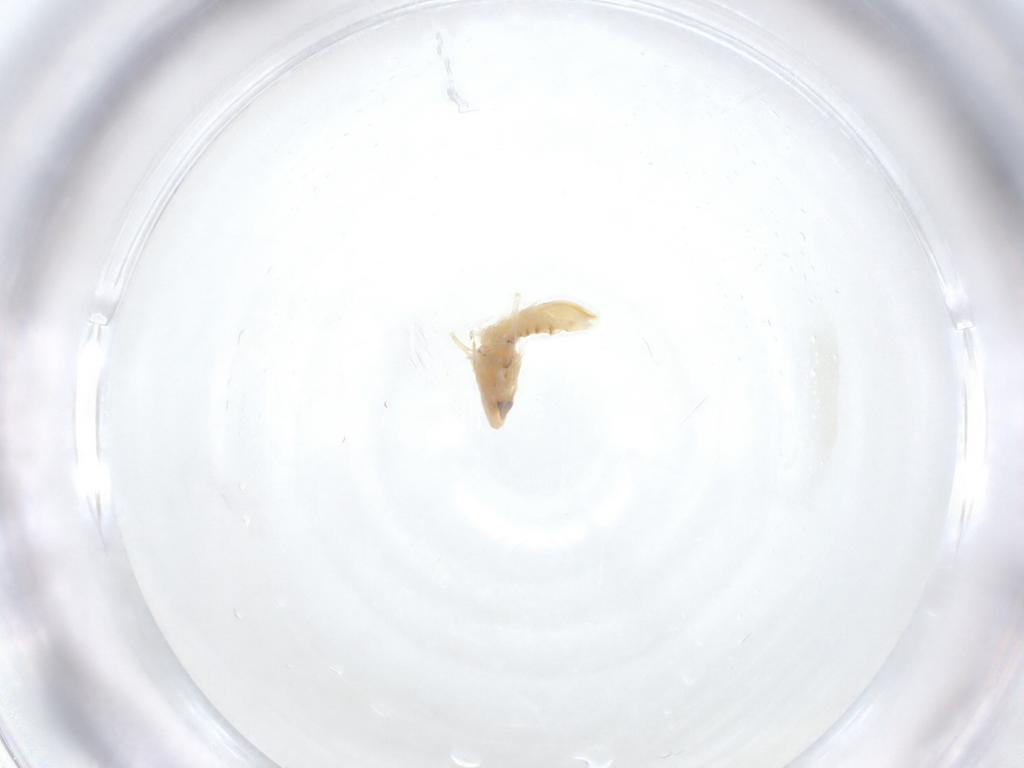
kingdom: Animalia
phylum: Arthropoda
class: Insecta
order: Hemiptera
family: Cicadellidae
